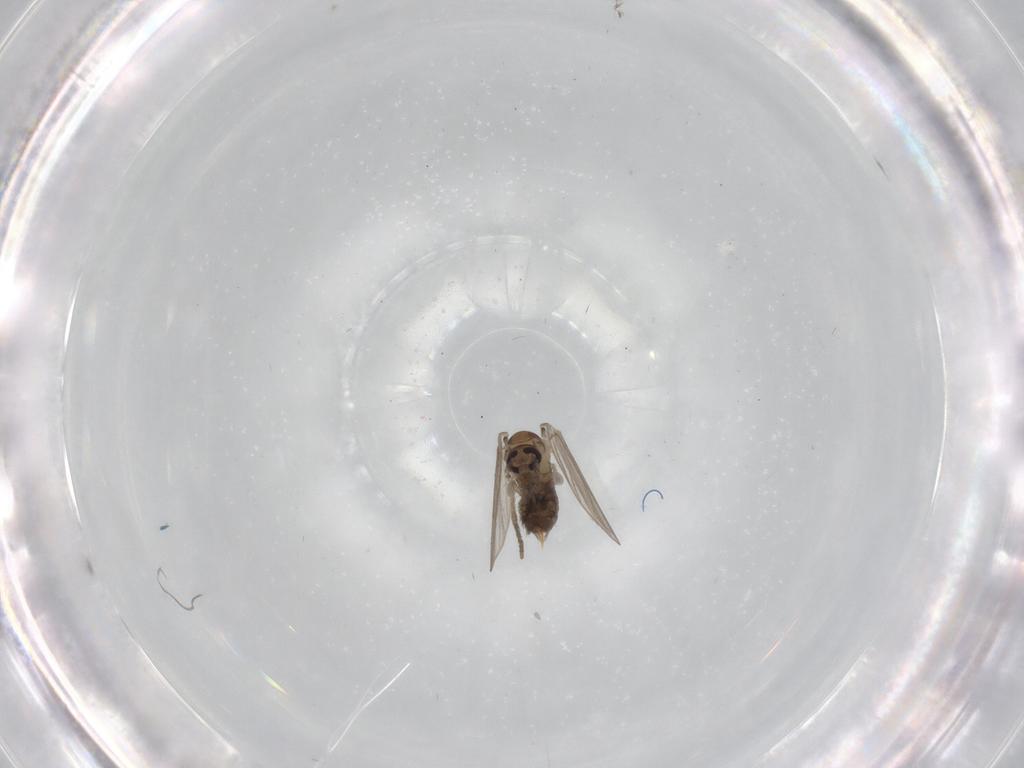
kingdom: Animalia
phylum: Arthropoda
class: Insecta
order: Diptera
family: Psychodidae
